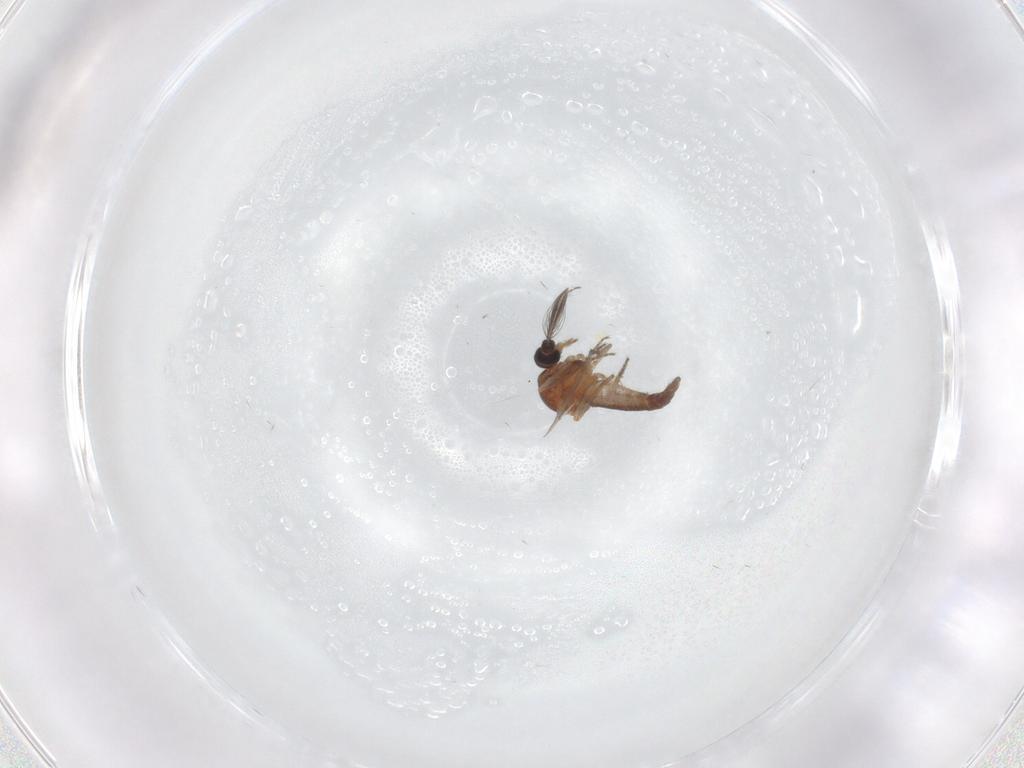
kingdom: Animalia
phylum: Arthropoda
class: Insecta
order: Diptera
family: Ceratopogonidae
